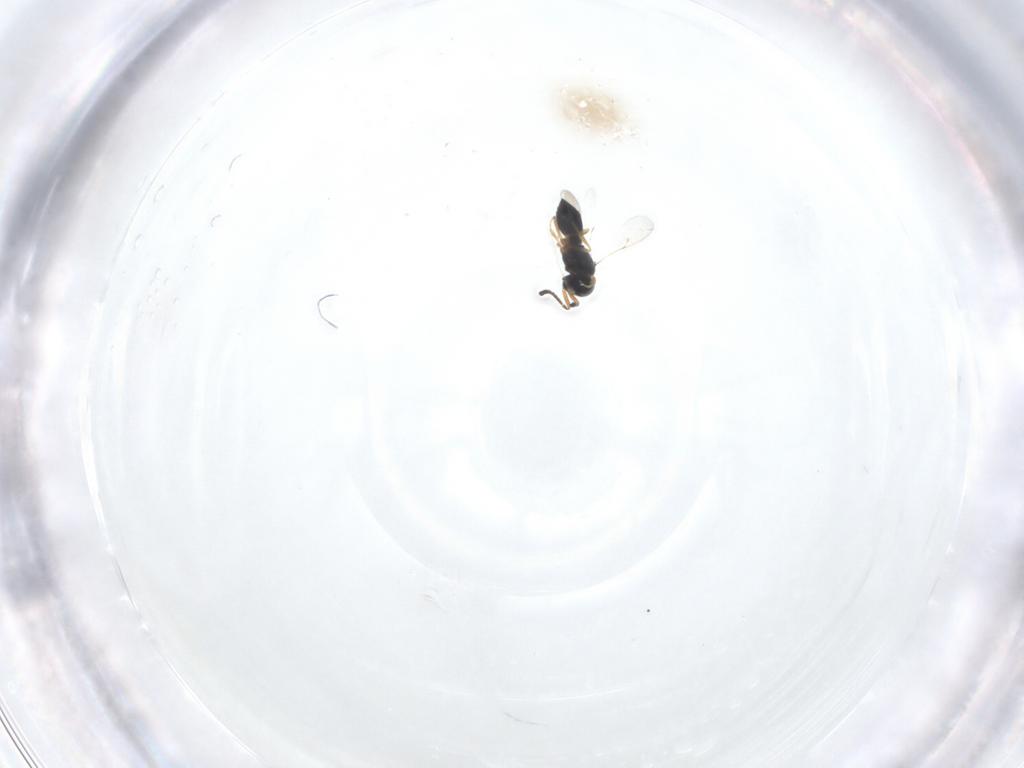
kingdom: Animalia
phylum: Arthropoda
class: Insecta
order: Hymenoptera
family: Scelionidae
